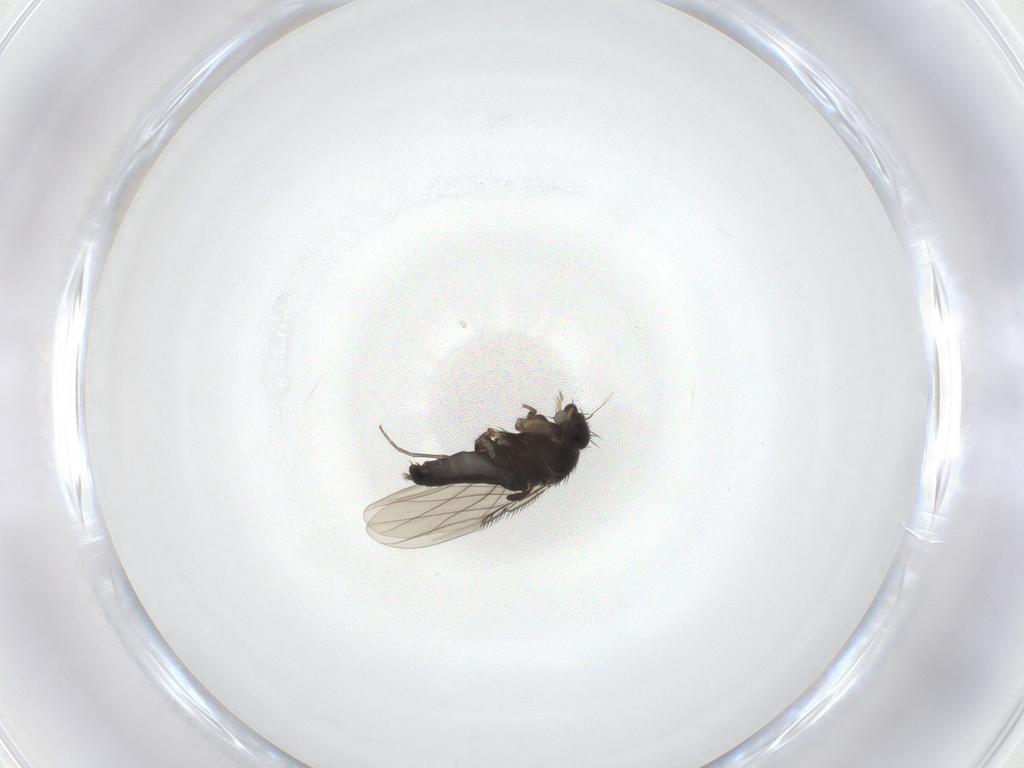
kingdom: Animalia
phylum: Arthropoda
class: Insecta
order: Diptera
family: Phoridae
